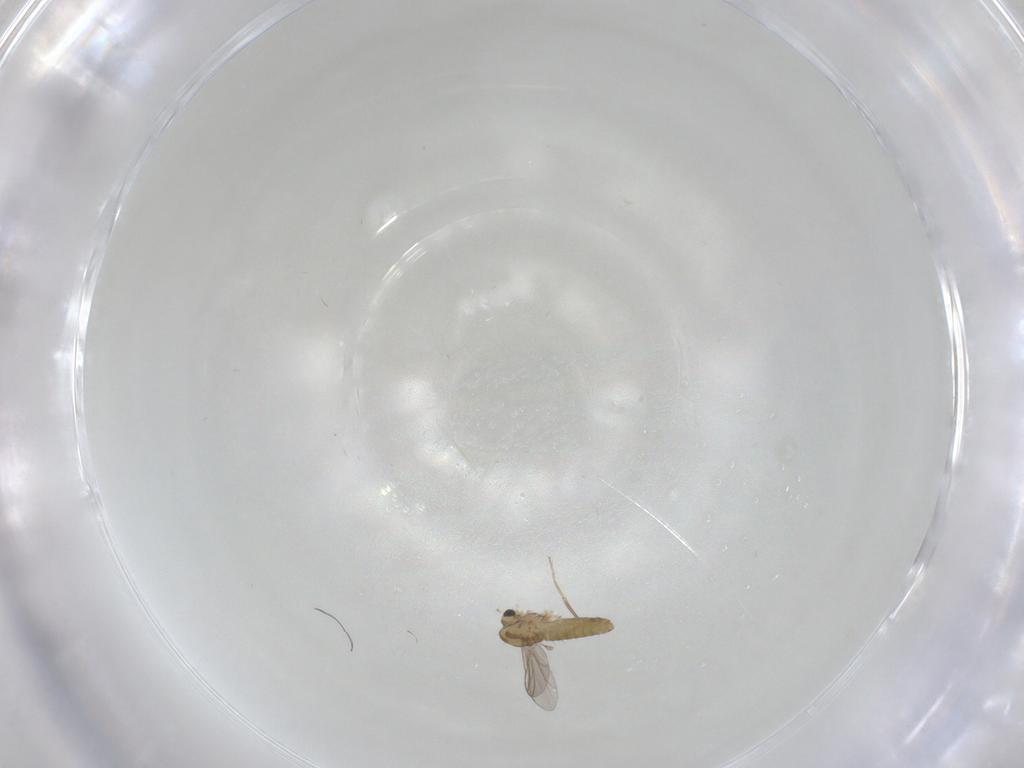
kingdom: Animalia
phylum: Arthropoda
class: Insecta
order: Diptera
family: Chironomidae
